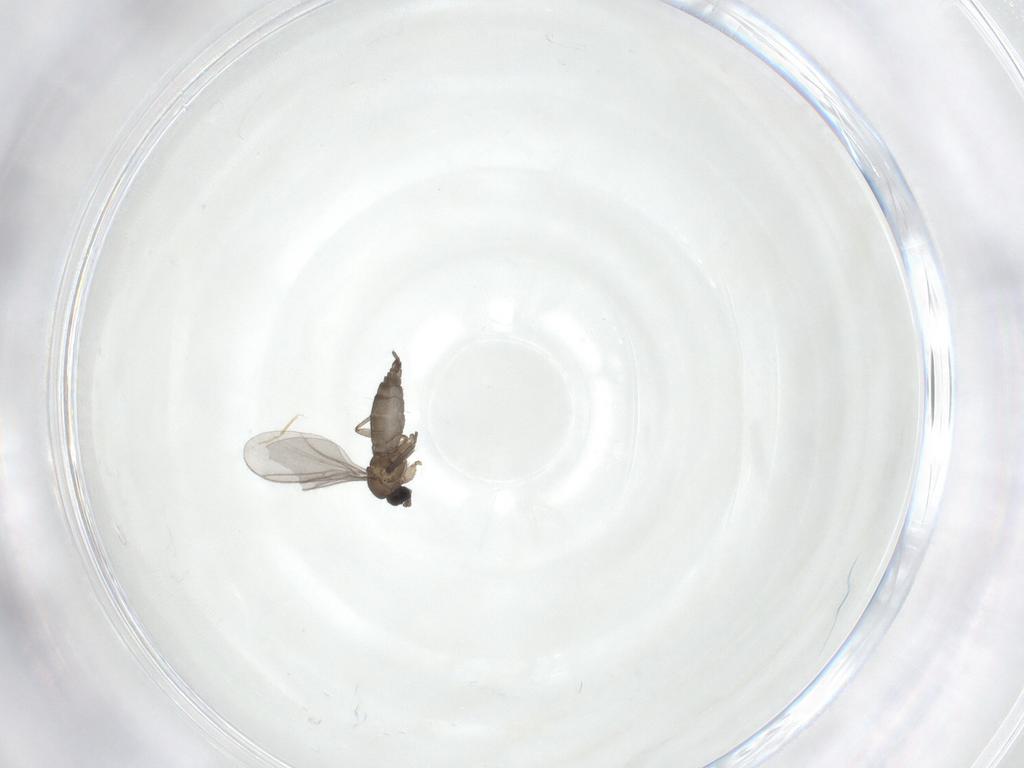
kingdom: Animalia
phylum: Arthropoda
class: Insecta
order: Diptera
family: Sciaridae
